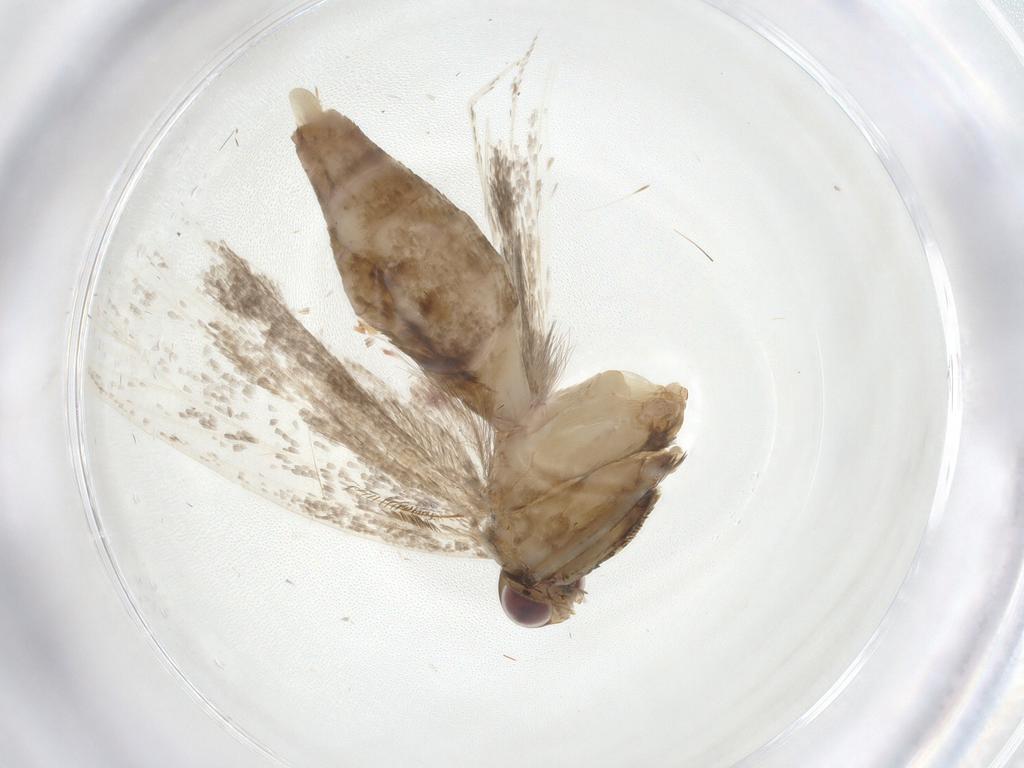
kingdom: Animalia
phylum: Arthropoda
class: Insecta
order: Lepidoptera
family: Gelechiidae
